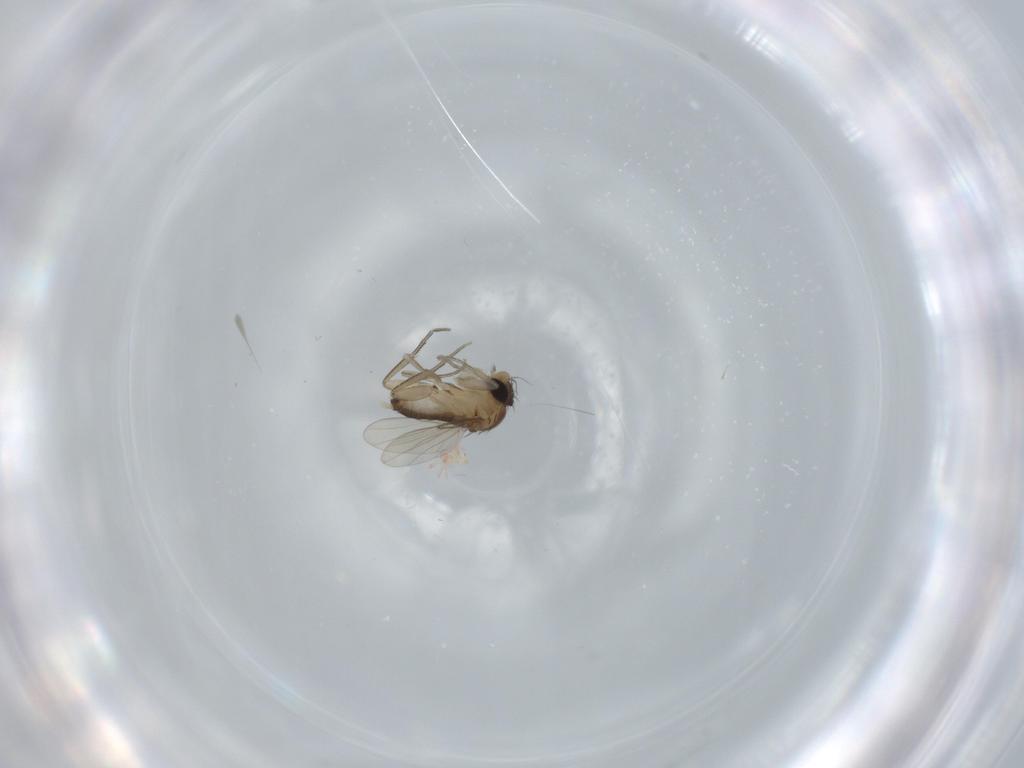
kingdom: Animalia
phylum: Arthropoda
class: Insecta
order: Diptera
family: Phoridae
